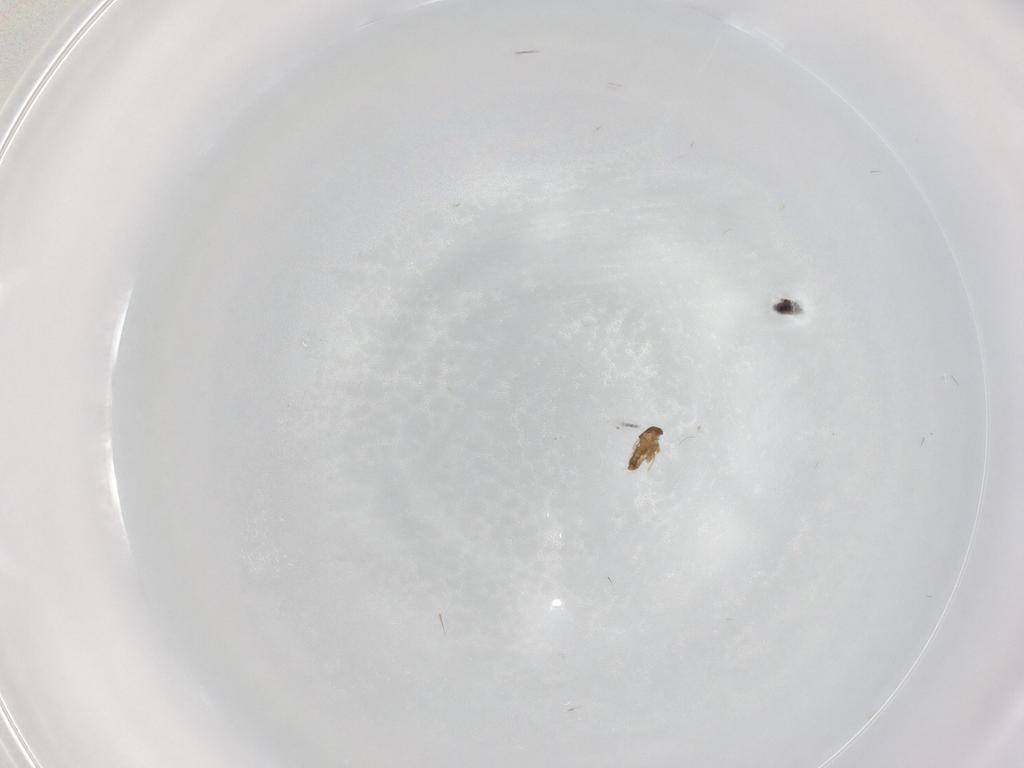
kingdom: Animalia
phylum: Arthropoda
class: Insecta
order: Diptera
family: Cecidomyiidae
